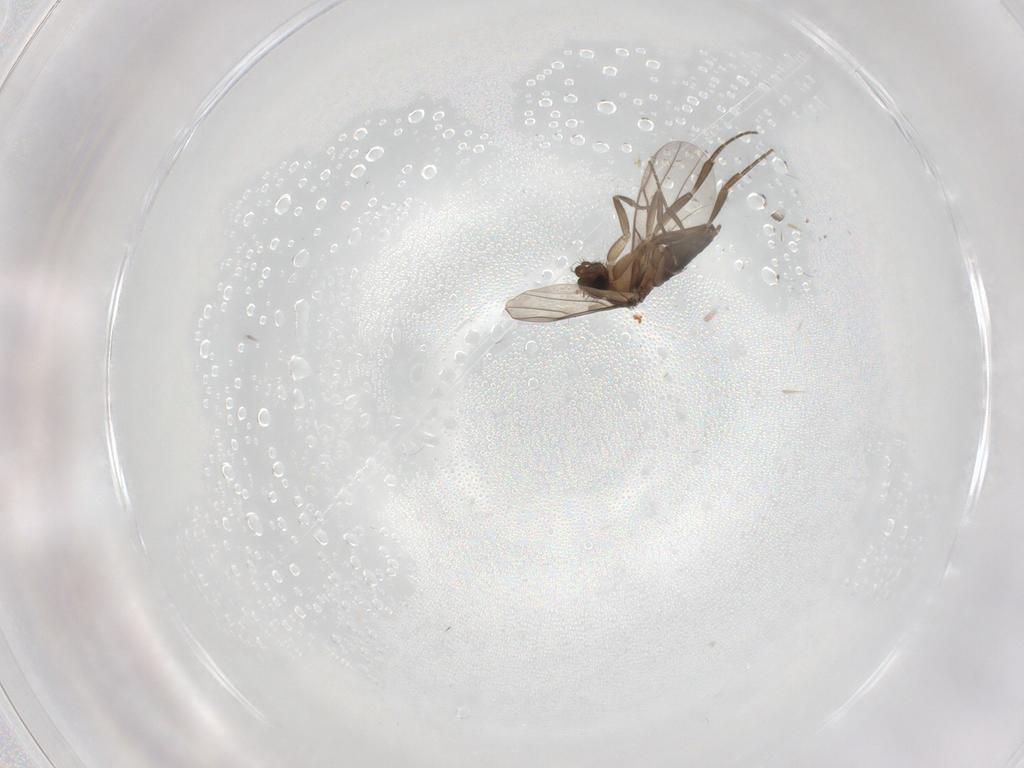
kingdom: Animalia
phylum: Arthropoda
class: Insecta
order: Diptera
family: Phoridae
